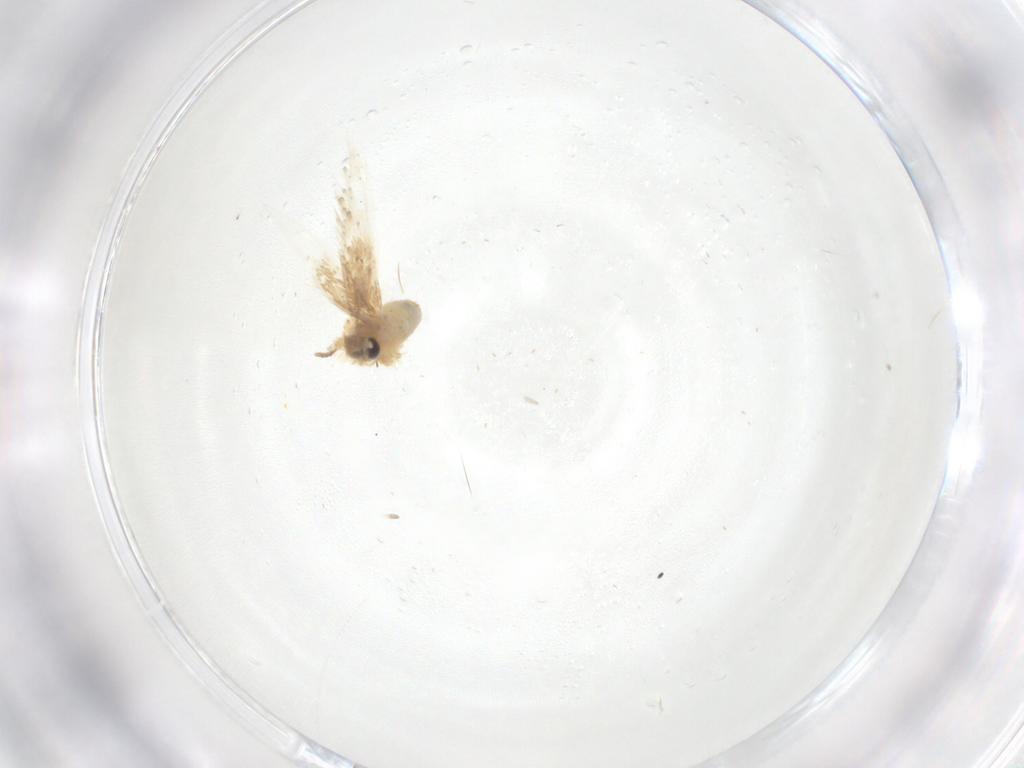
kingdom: Animalia
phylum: Arthropoda
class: Insecta
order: Lepidoptera
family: Nepticulidae
